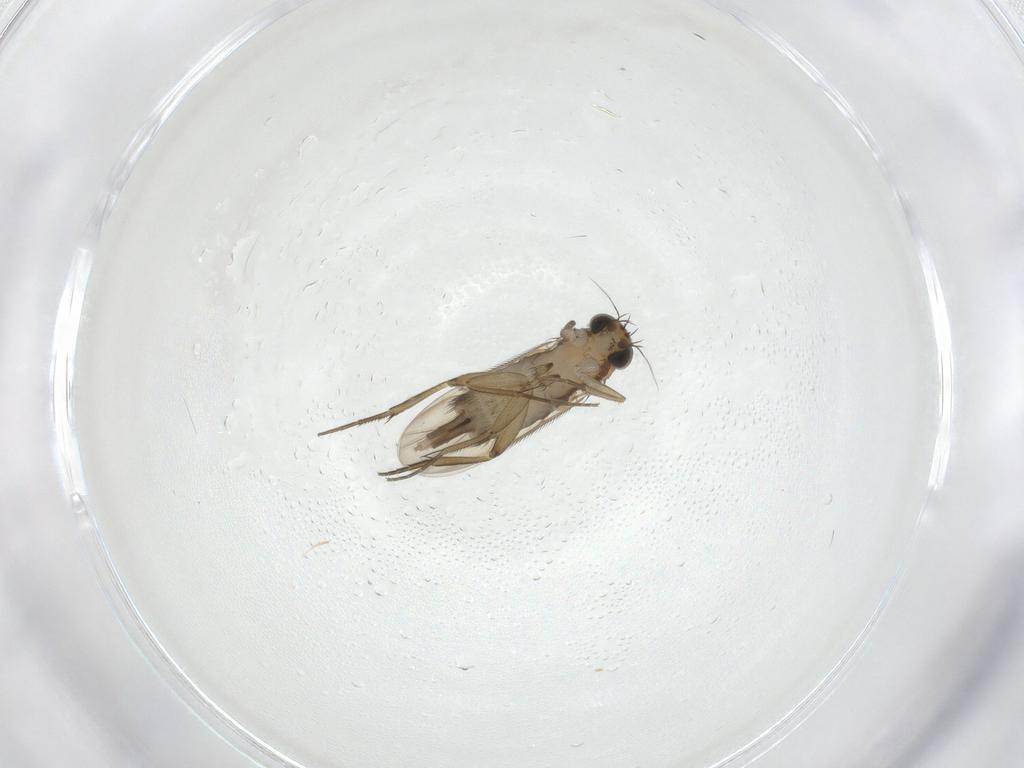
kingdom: Animalia
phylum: Arthropoda
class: Insecta
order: Diptera
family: Phoridae
